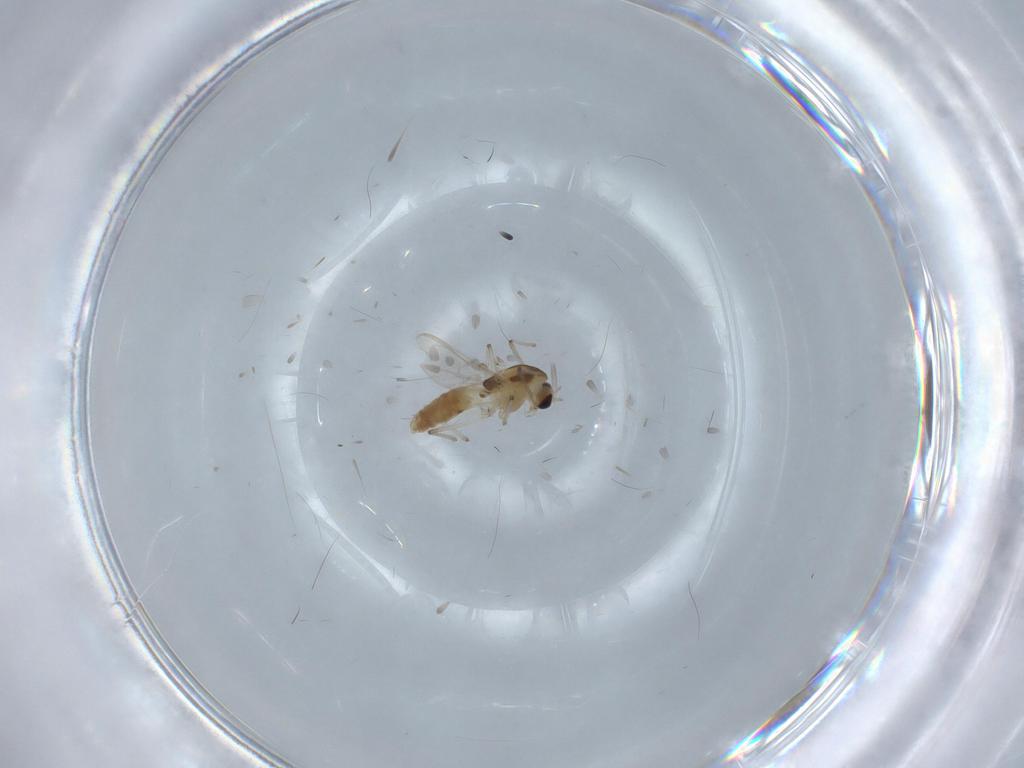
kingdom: Animalia
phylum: Arthropoda
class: Insecta
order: Diptera
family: Chironomidae
